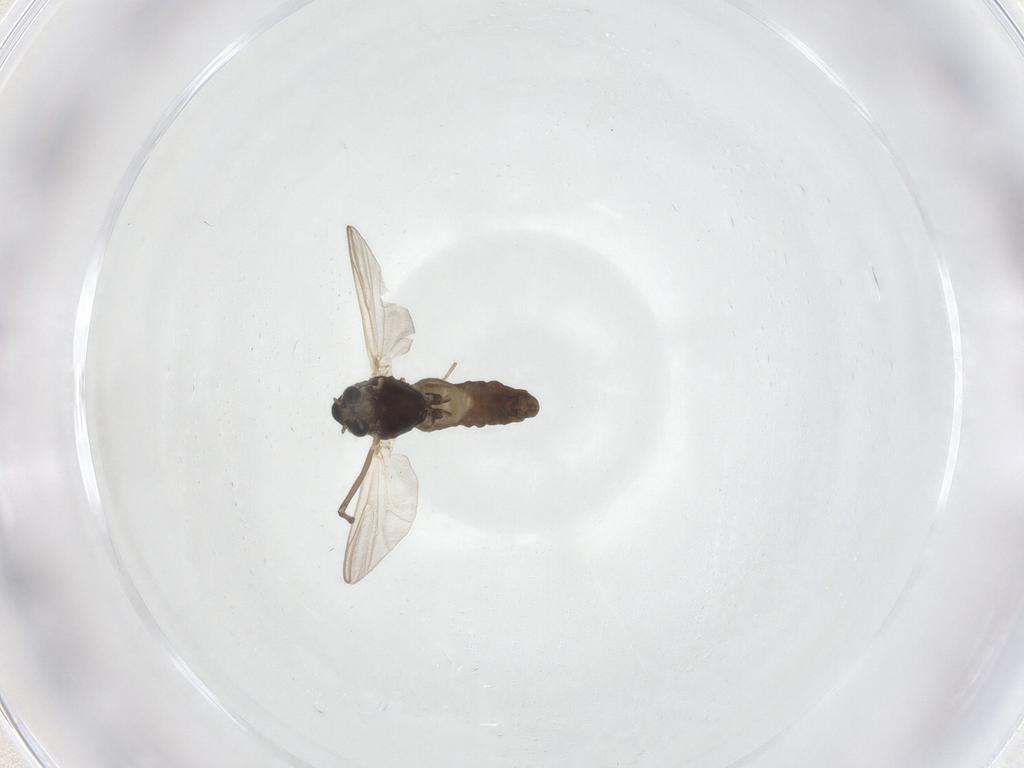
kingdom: Animalia
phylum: Arthropoda
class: Insecta
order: Diptera
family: Chironomidae
